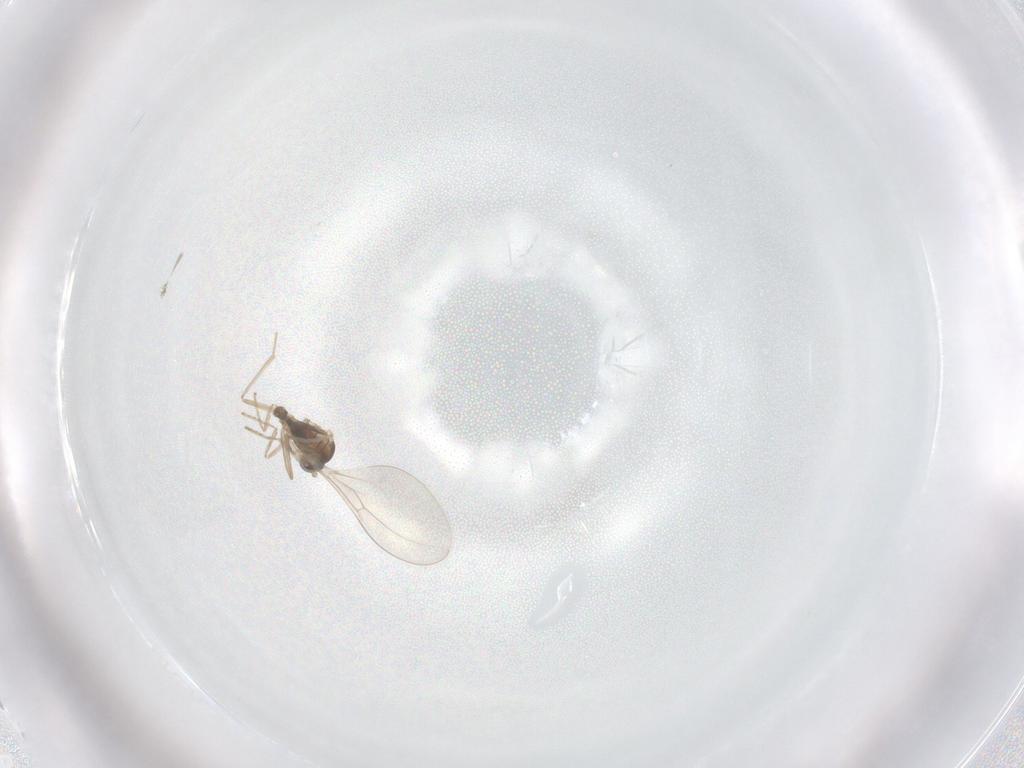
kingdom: Animalia
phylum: Arthropoda
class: Insecta
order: Diptera
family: Cecidomyiidae
